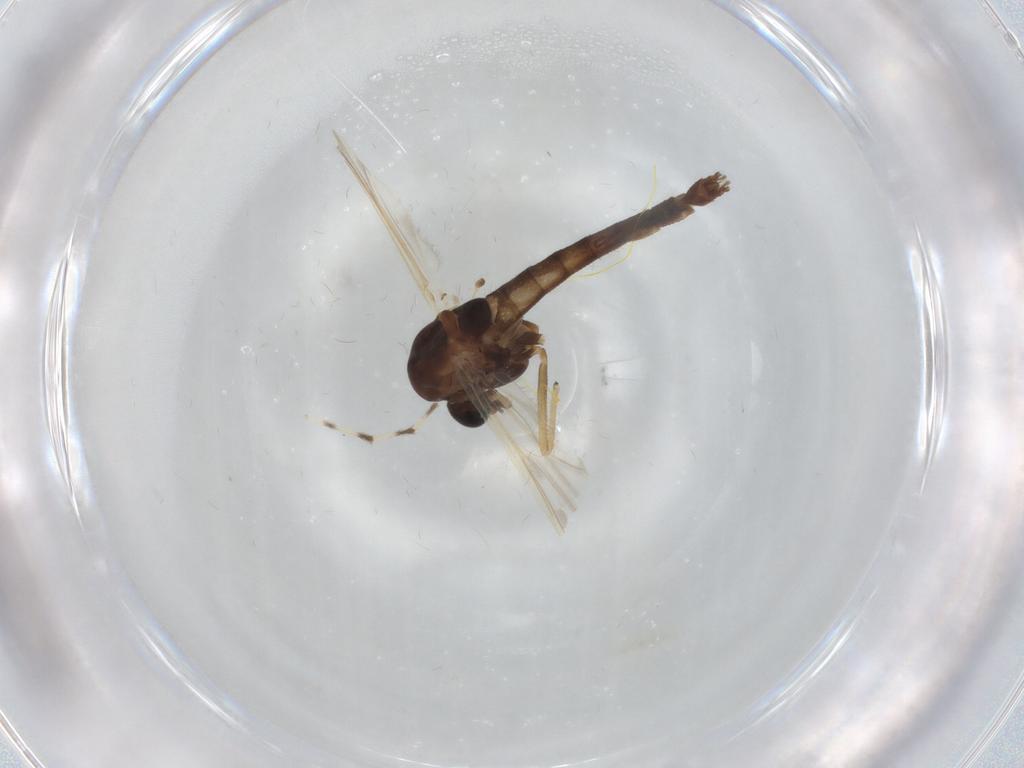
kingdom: Animalia
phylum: Arthropoda
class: Insecta
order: Diptera
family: Chironomidae
